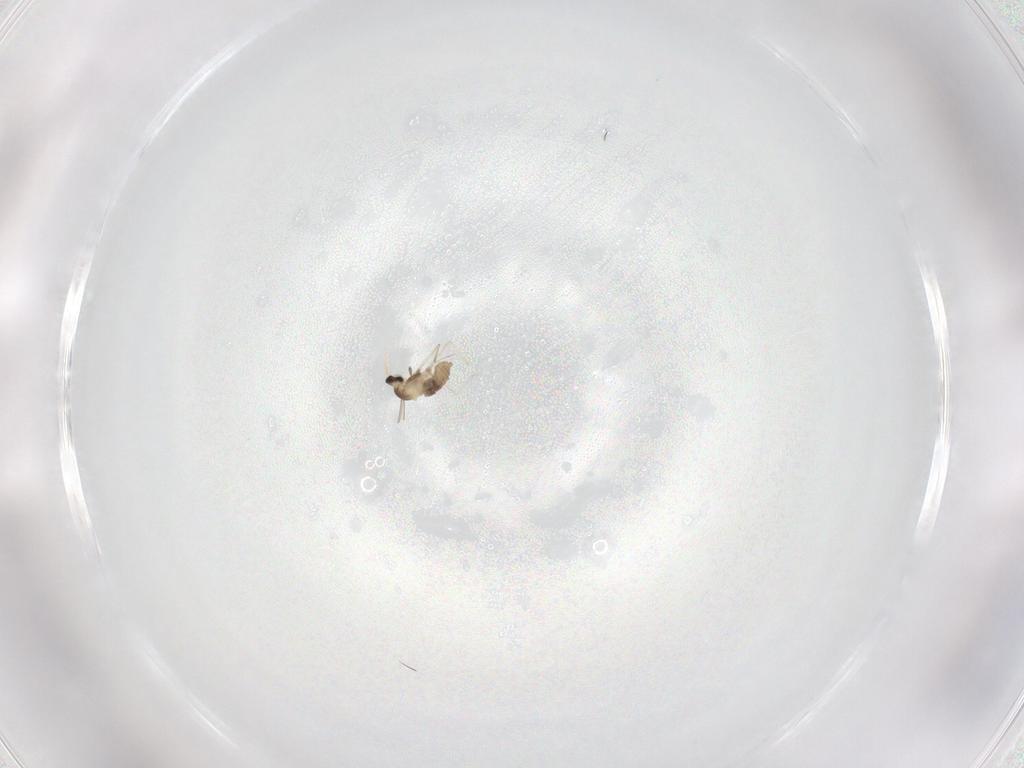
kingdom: Animalia
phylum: Arthropoda
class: Insecta
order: Diptera
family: Cecidomyiidae
